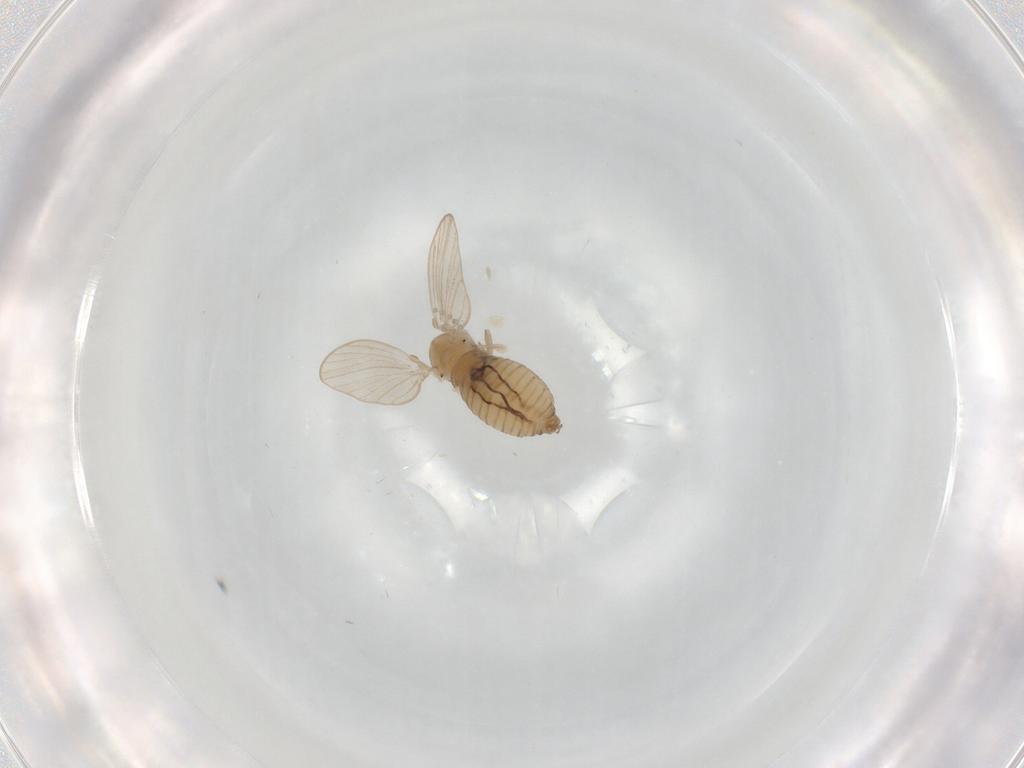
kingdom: Animalia
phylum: Arthropoda
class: Insecta
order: Diptera
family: Psychodidae
